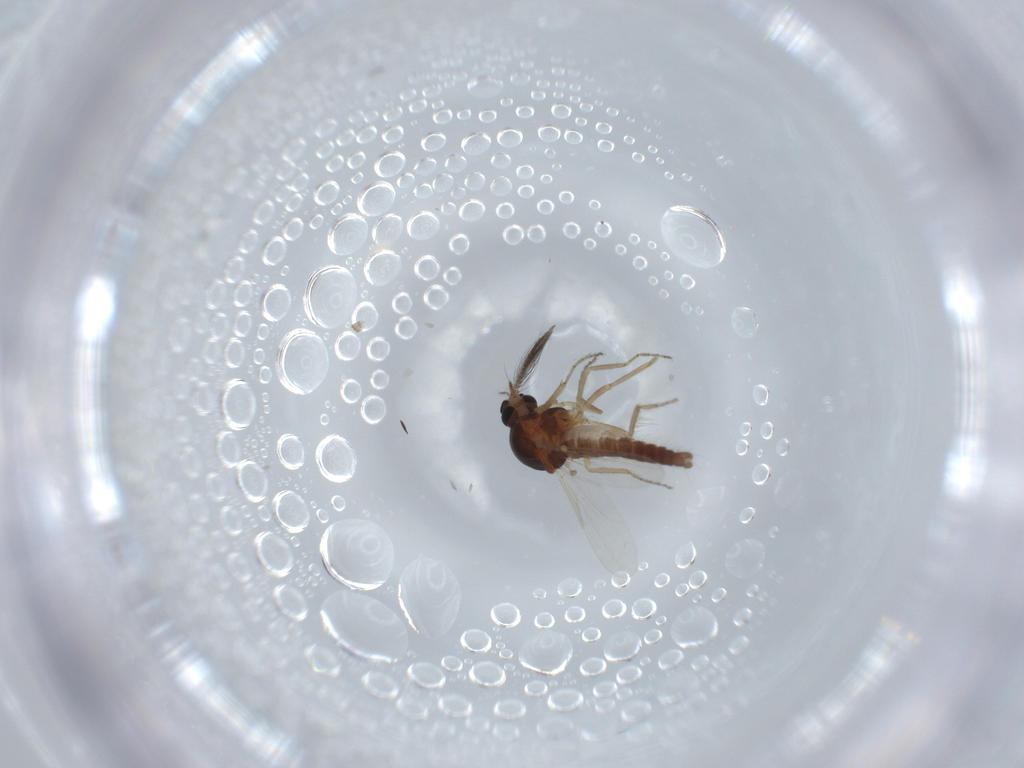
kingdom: Animalia
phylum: Arthropoda
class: Insecta
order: Diptera
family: Ceratopogonidae
